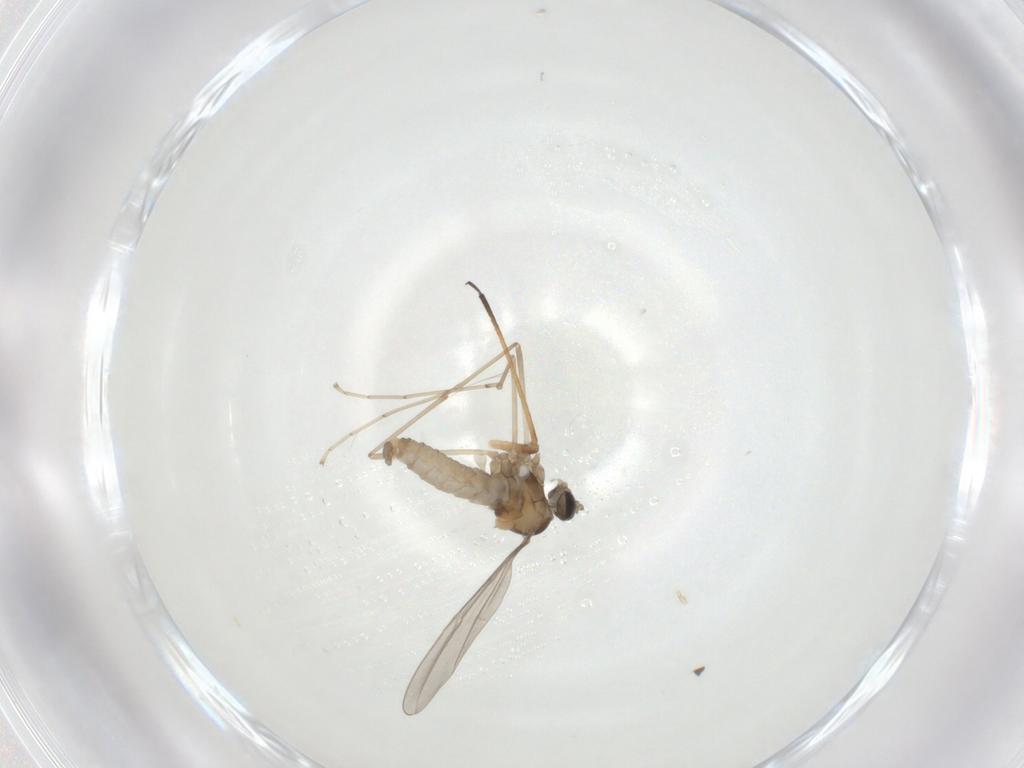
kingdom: Animalia
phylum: Arthropoda
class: Insecta
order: Diptera
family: Cecidomyiidae
